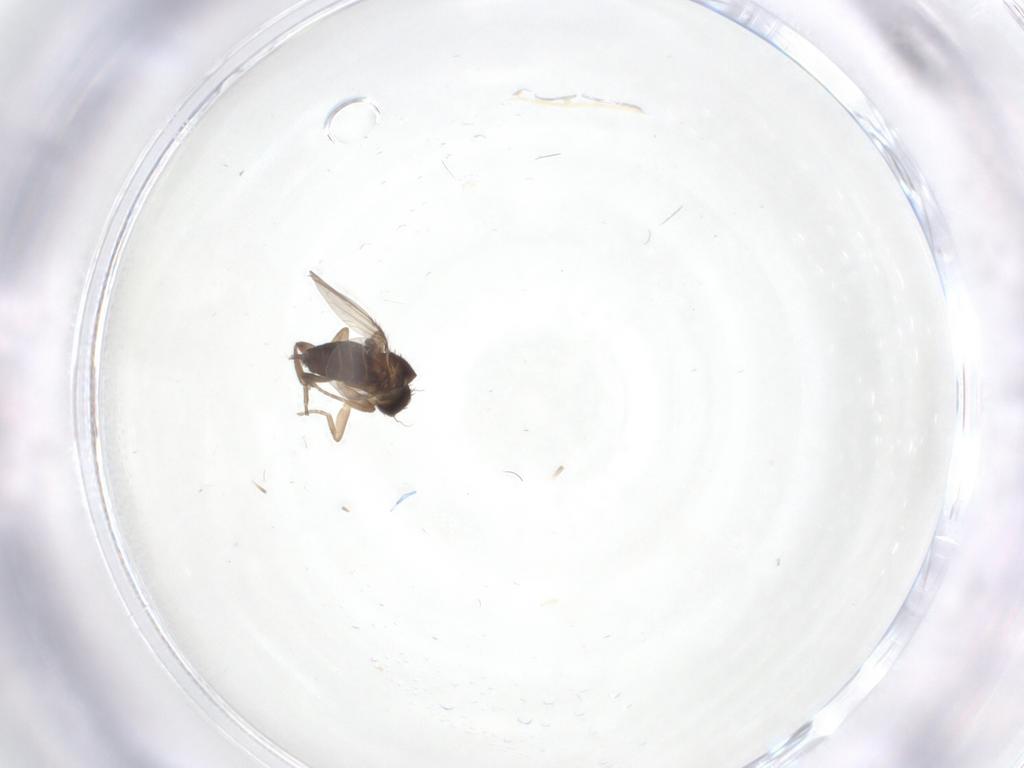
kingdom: Animalia
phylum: Arthropoda
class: Insecta
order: Diptera
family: Phoridae
